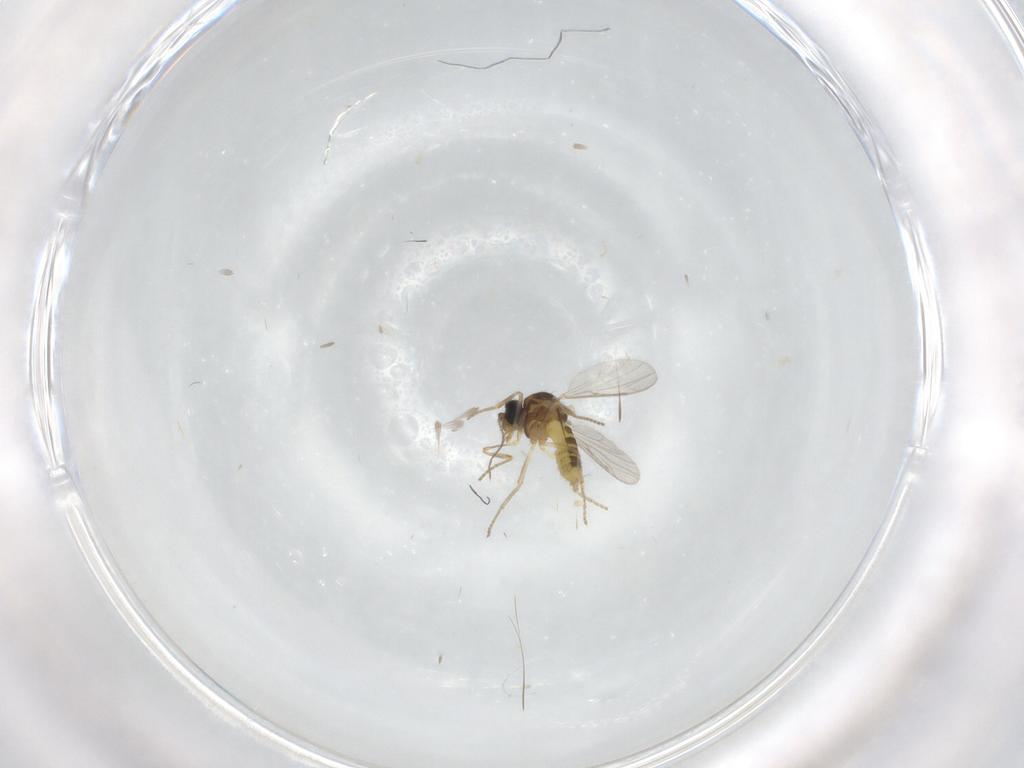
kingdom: Animalia
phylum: Arthropoda
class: Insecta
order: Diptera
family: Ceratopogonidae
